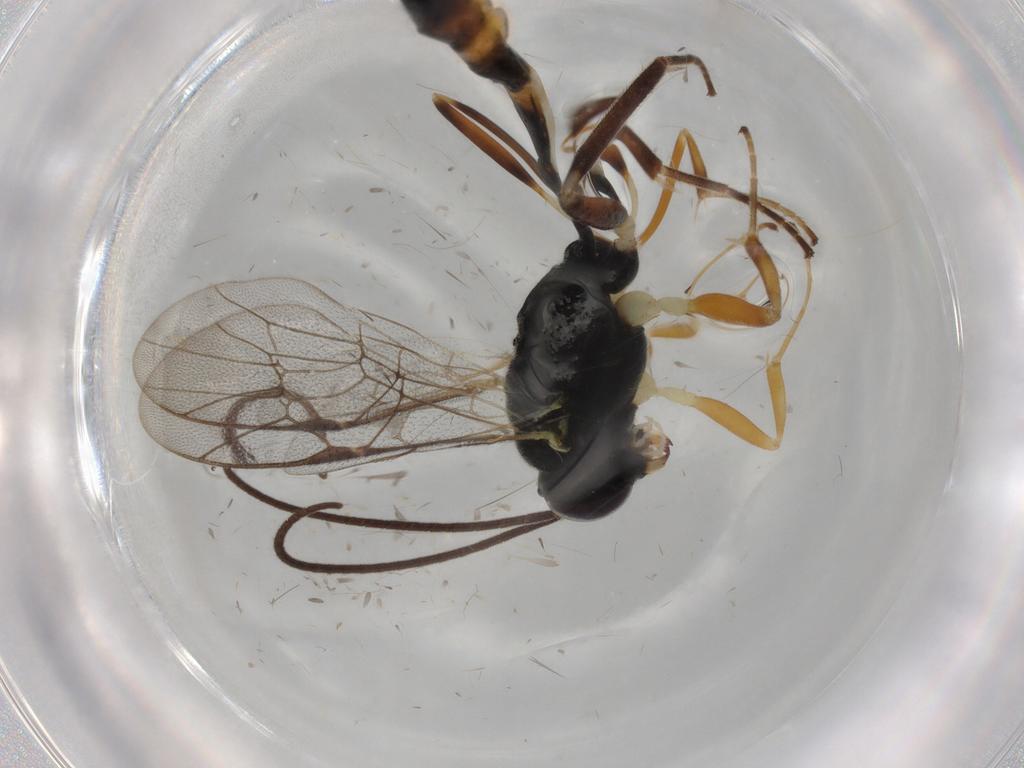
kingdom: Animalia
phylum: Arthropoda
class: Insecta
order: Hymenoptera
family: Ichneumonidae
